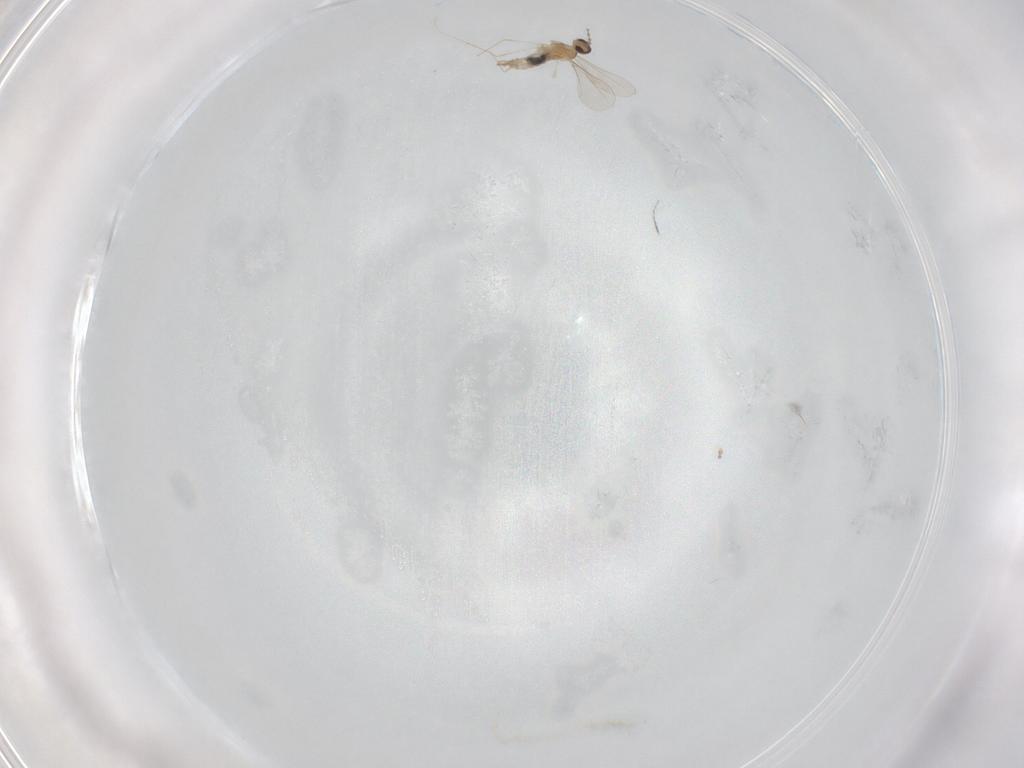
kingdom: Animalia
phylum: Arthropoda
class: Insecta
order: Diptera
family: Cecidomyiidae
